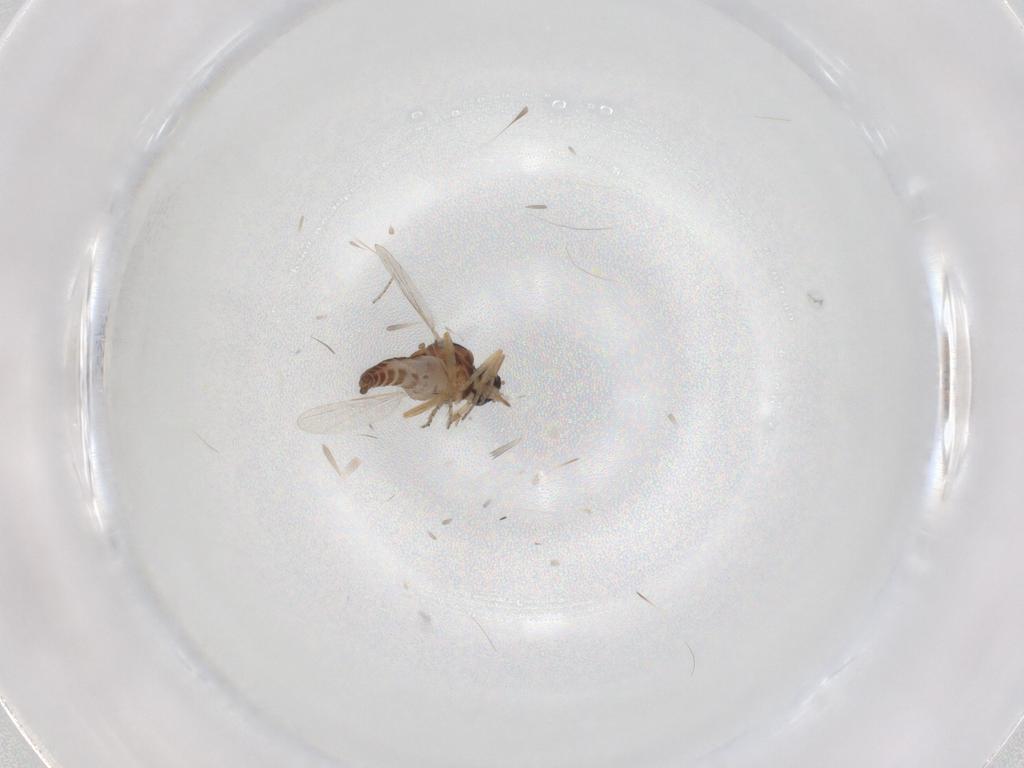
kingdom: Animalia
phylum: Arthropoda
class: Insecta
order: Diptera
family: Ceratopogonidae
